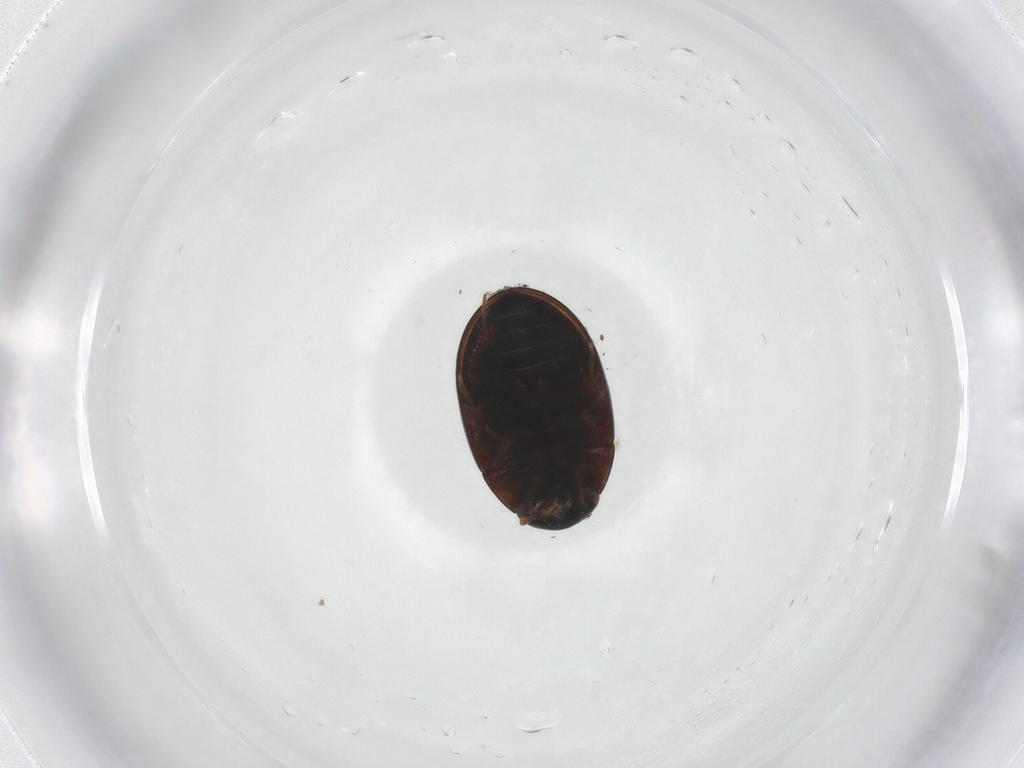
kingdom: Animalia
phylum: Arthropoda
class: Insecta
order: Coleoptera
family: Hydrophilidae
